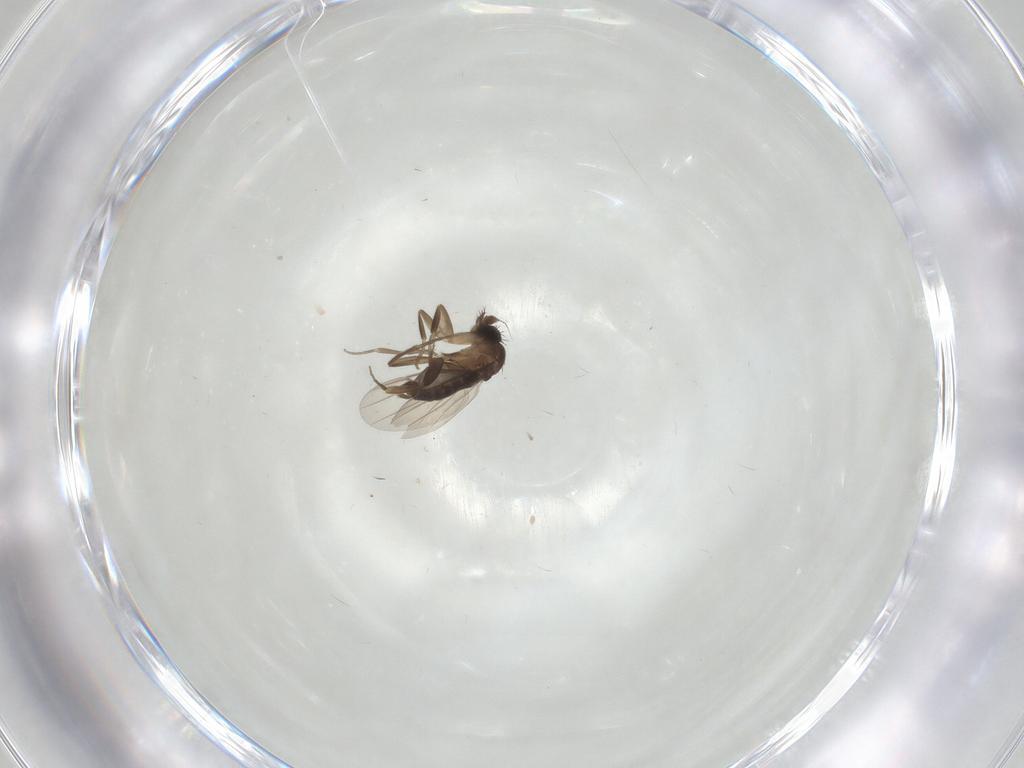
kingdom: Animalia
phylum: Arthropoda
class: Insecta
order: Diptera
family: Phoridae
